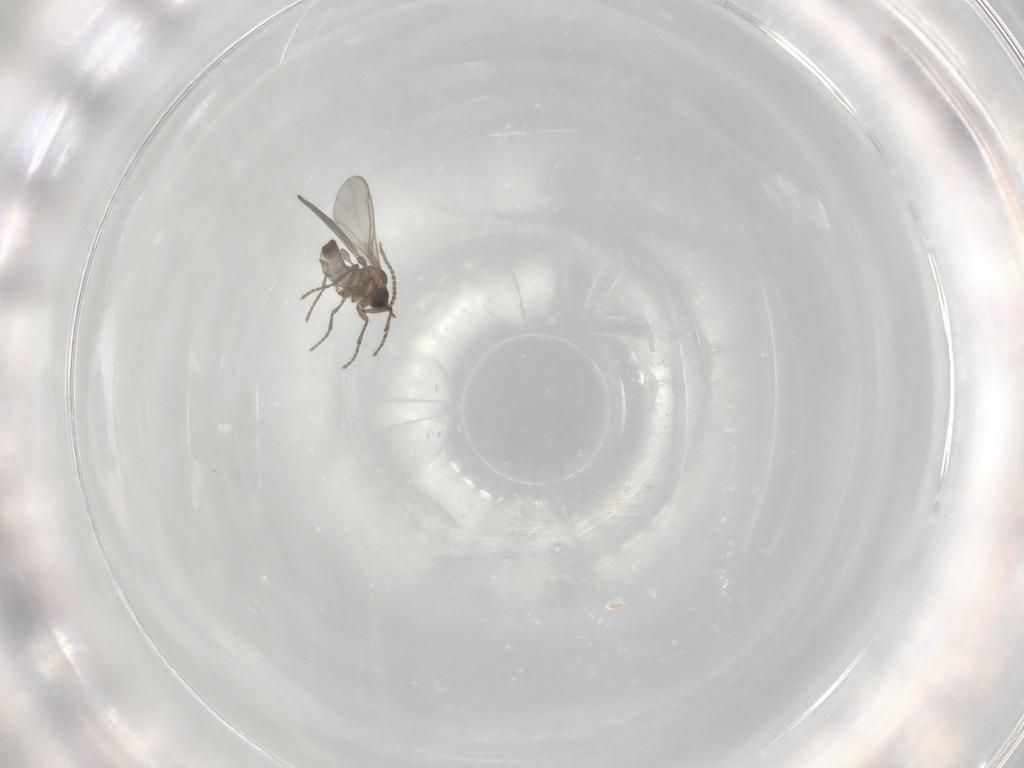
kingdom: Animalia
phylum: Arthropoda
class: Insecta
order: Diptera
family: Sciaridae
